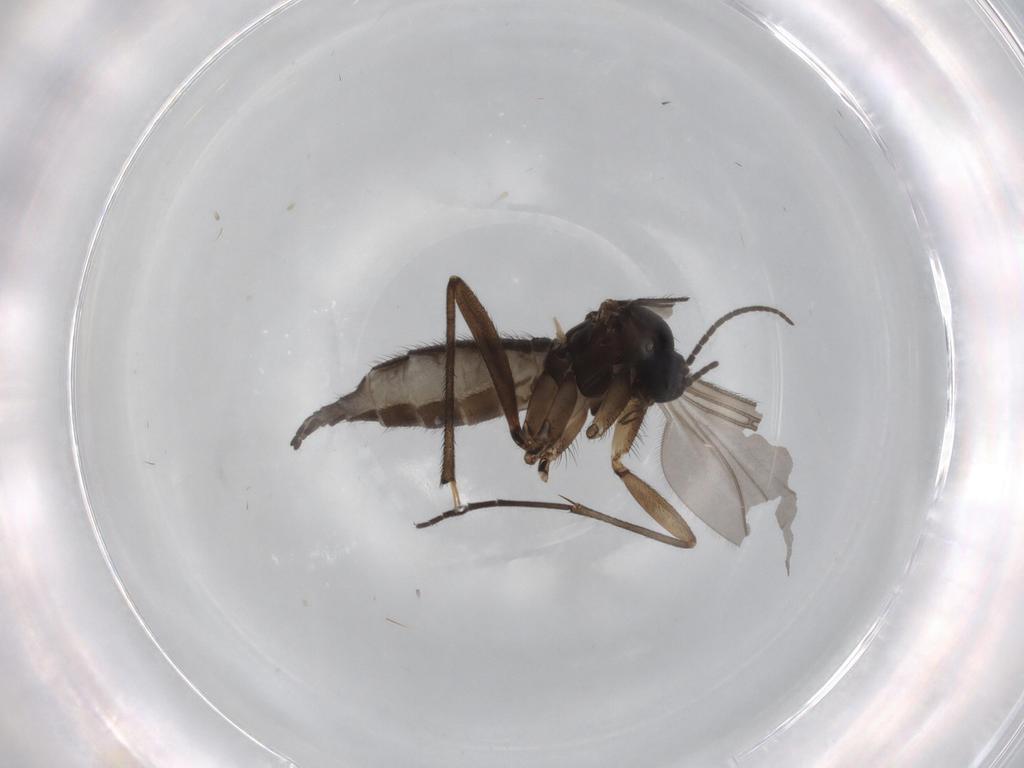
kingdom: Animalia
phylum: Arthropoda
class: Insecta
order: Diptera
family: Sciaridae
